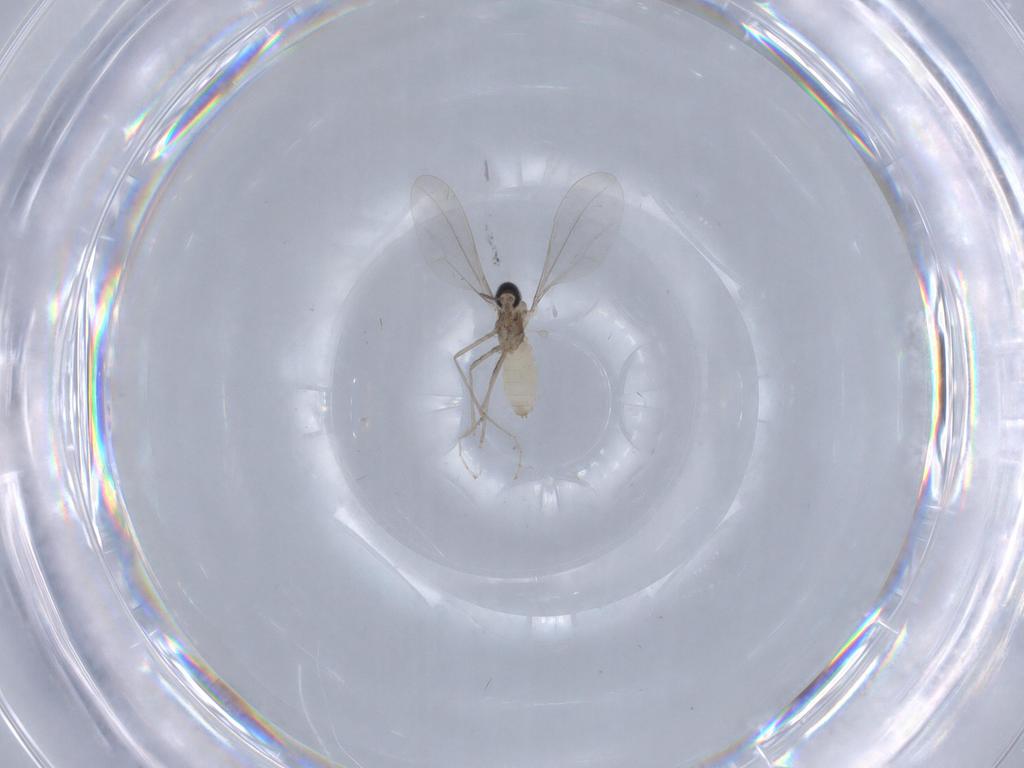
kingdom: Animalia
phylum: Arthropoda
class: Insecta
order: Diptera
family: Cecidomyiidae
